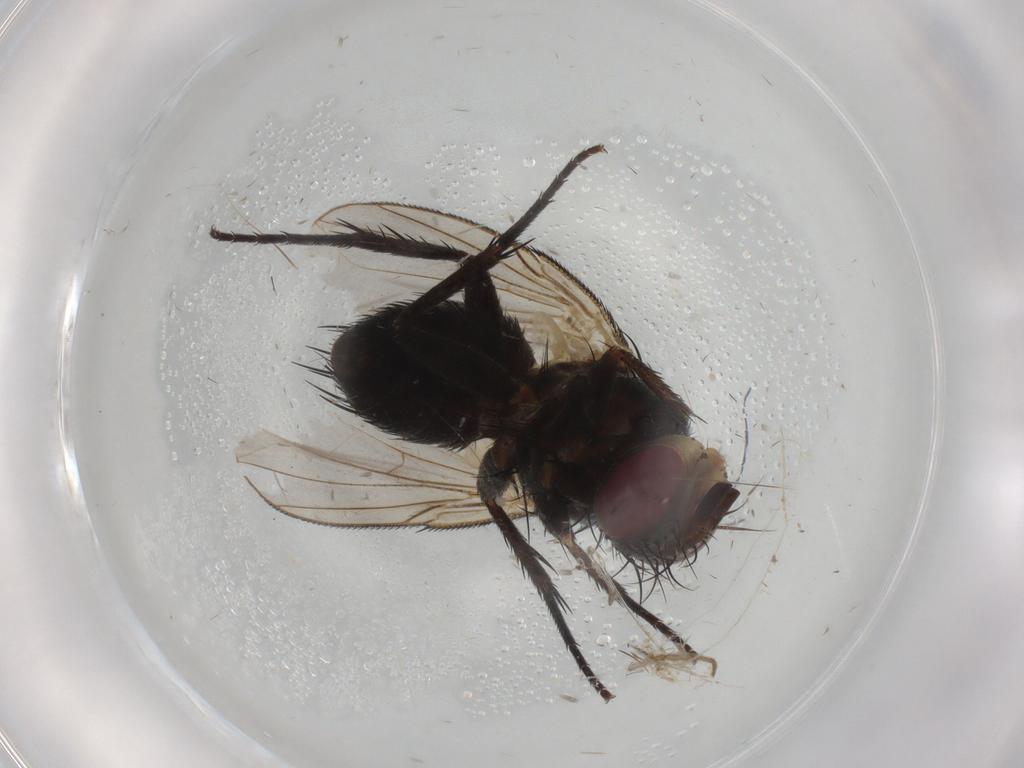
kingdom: Animalia
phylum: Arthropoda
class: Insecta
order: Diptera
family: Tachinidae
